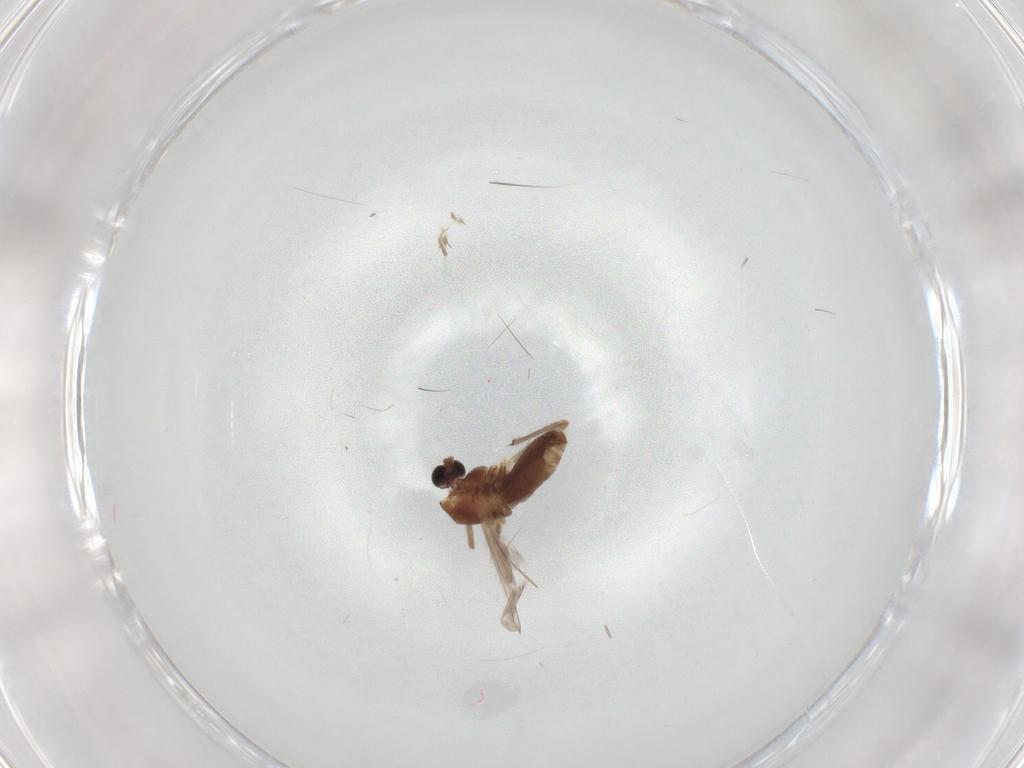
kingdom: Animalia
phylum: Arthropoda
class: Insecta
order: Diptera
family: Chironomidae
